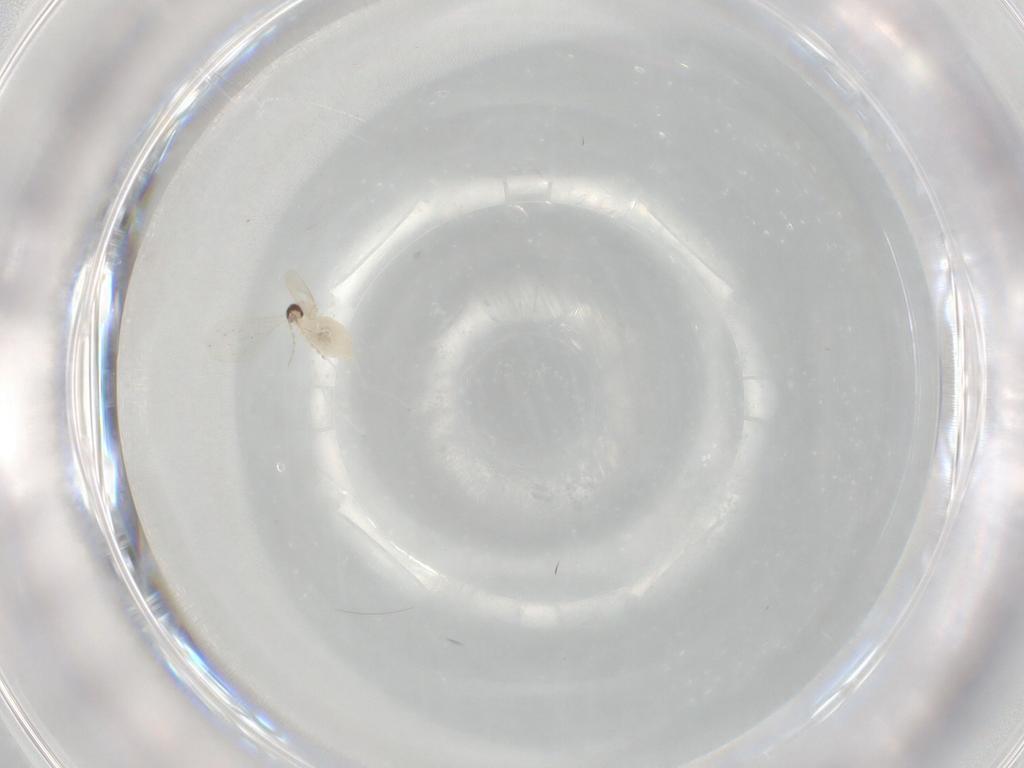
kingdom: Animalia
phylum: Arthropoda
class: Insecta
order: Diptera
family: Cecidomyiidae
